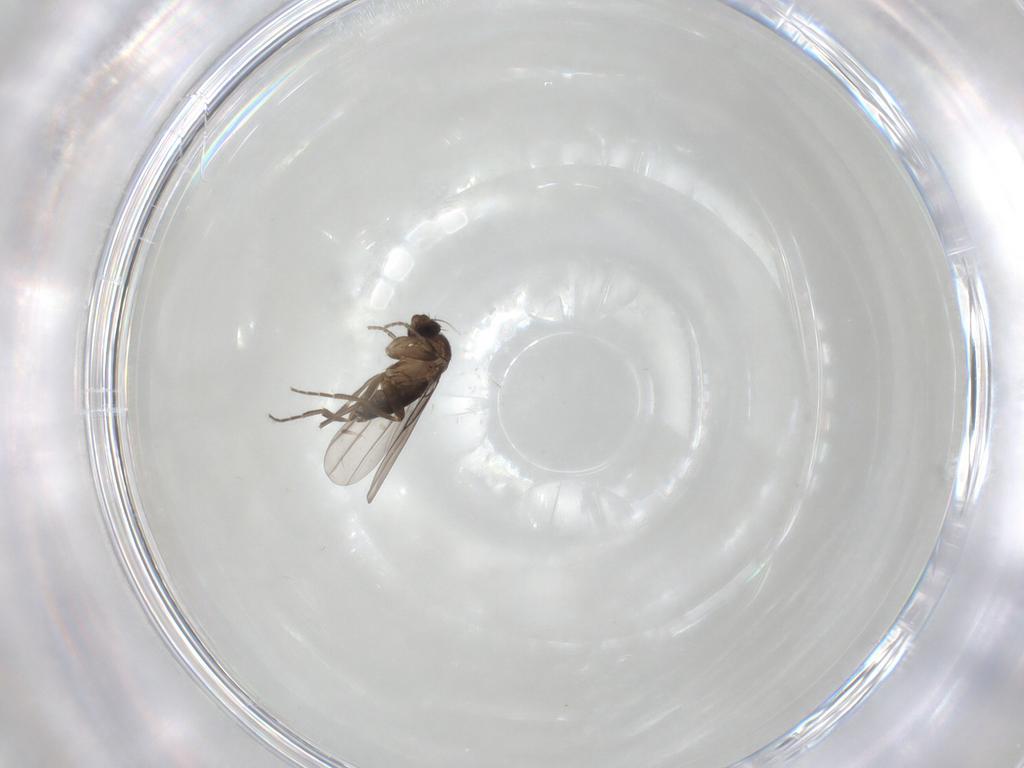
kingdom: Animalia
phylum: Arthropoda
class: Insecta
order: Diptera
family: Phoridae
